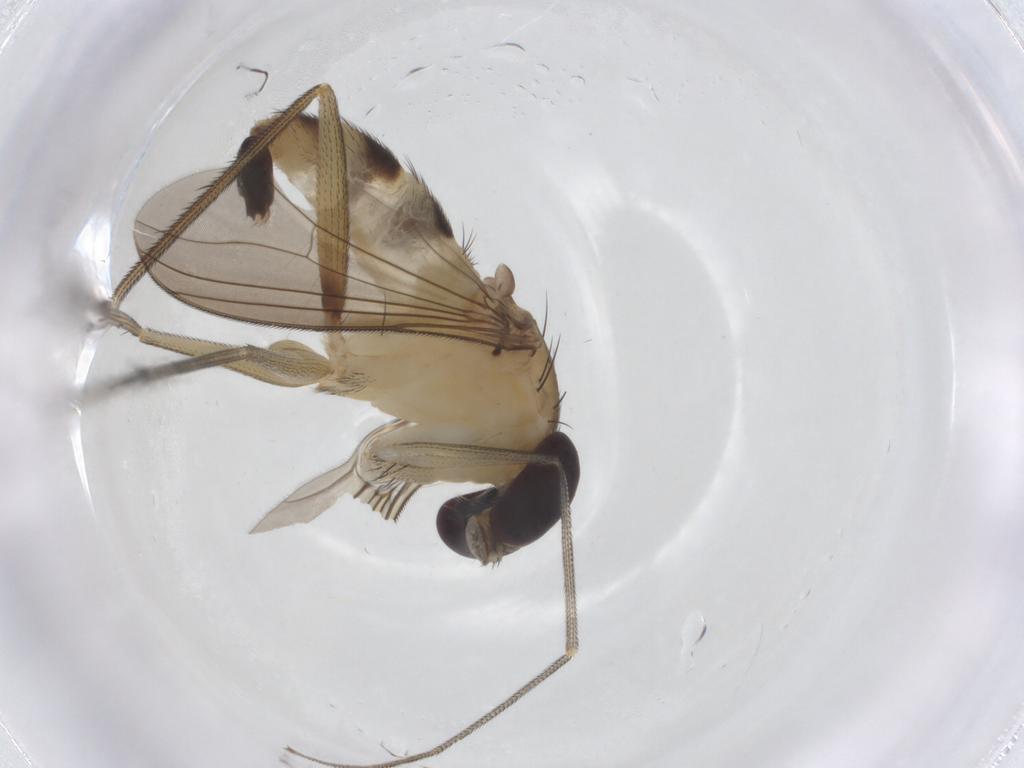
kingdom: Animalia
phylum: Arthropoda
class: Insecta
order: Diptera
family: Dolichopodidae
